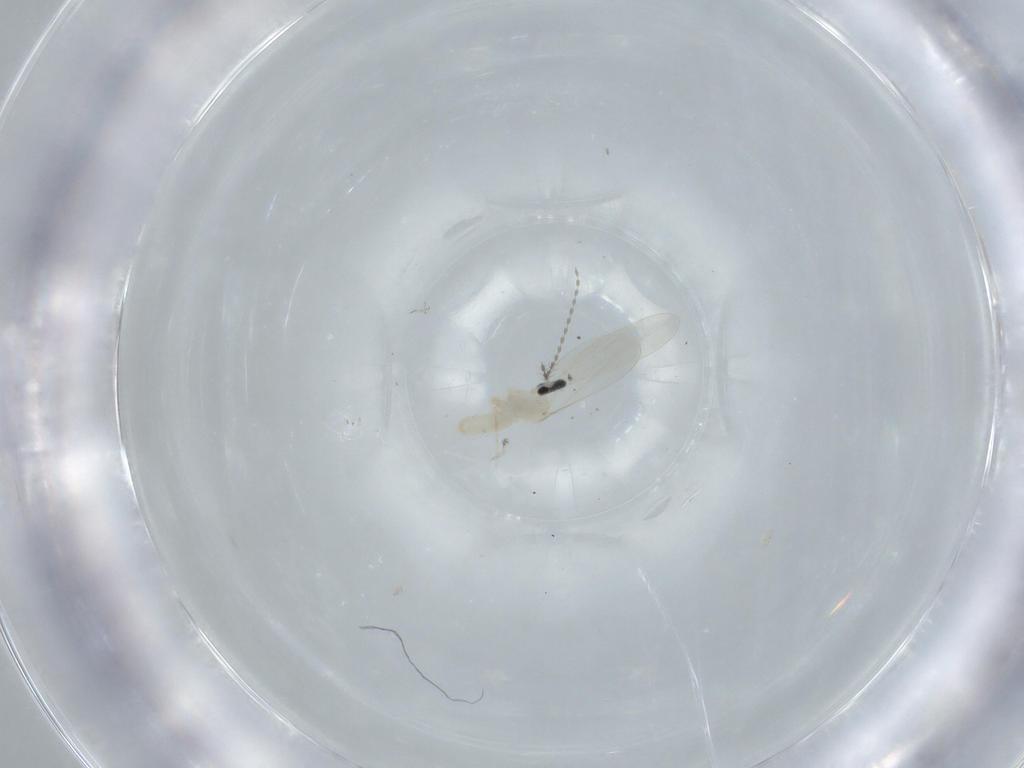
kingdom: Animalia
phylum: Arthropoda
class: Insecta
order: Diptera
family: Cecidomyiidae
